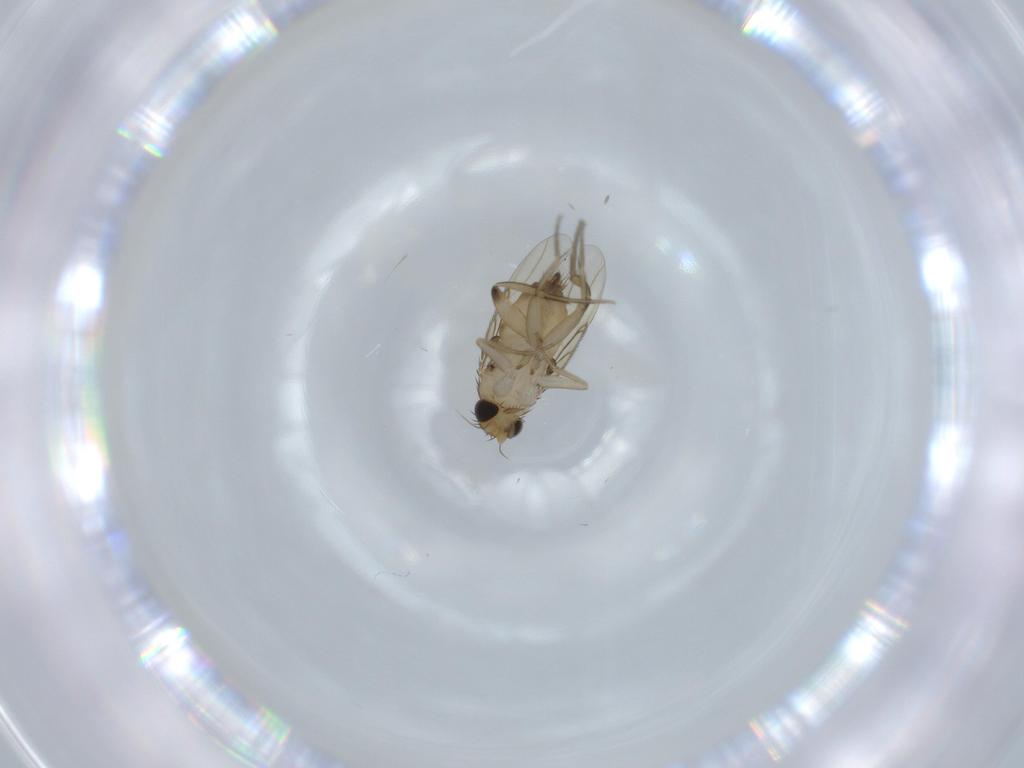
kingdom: Animalia
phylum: Arthropoda
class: Insecta
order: Diptera
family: Phoridae
